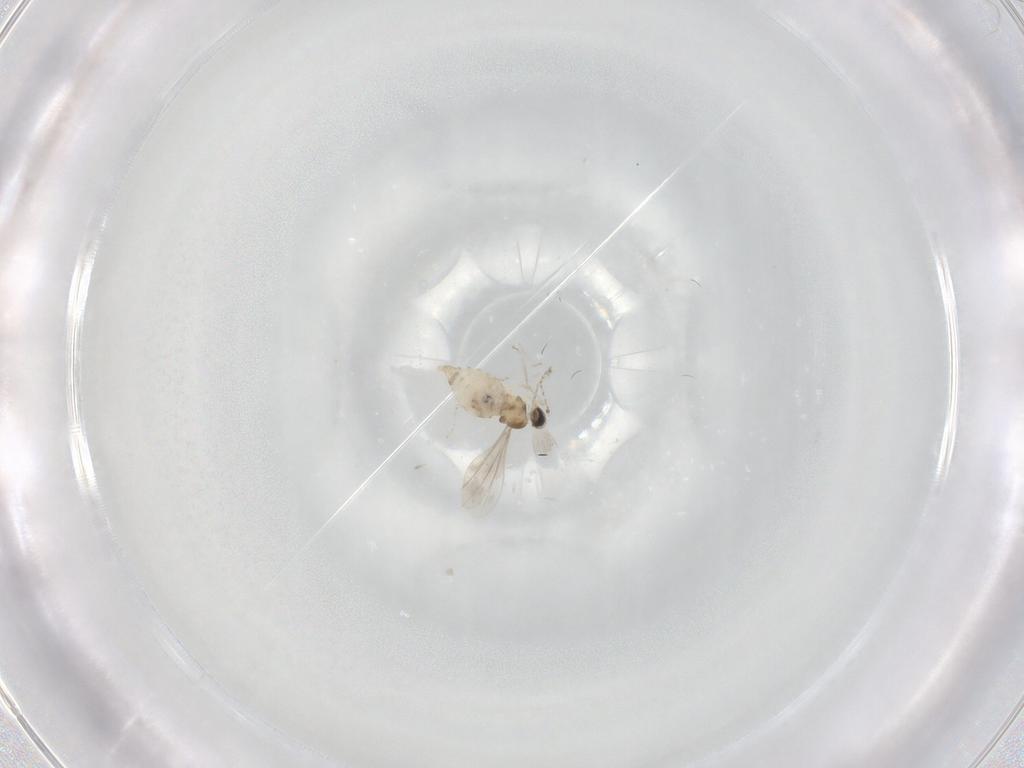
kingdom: Animalia
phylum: Arthropoda
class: Insecta
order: Diptera
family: Cecidomyiidae
